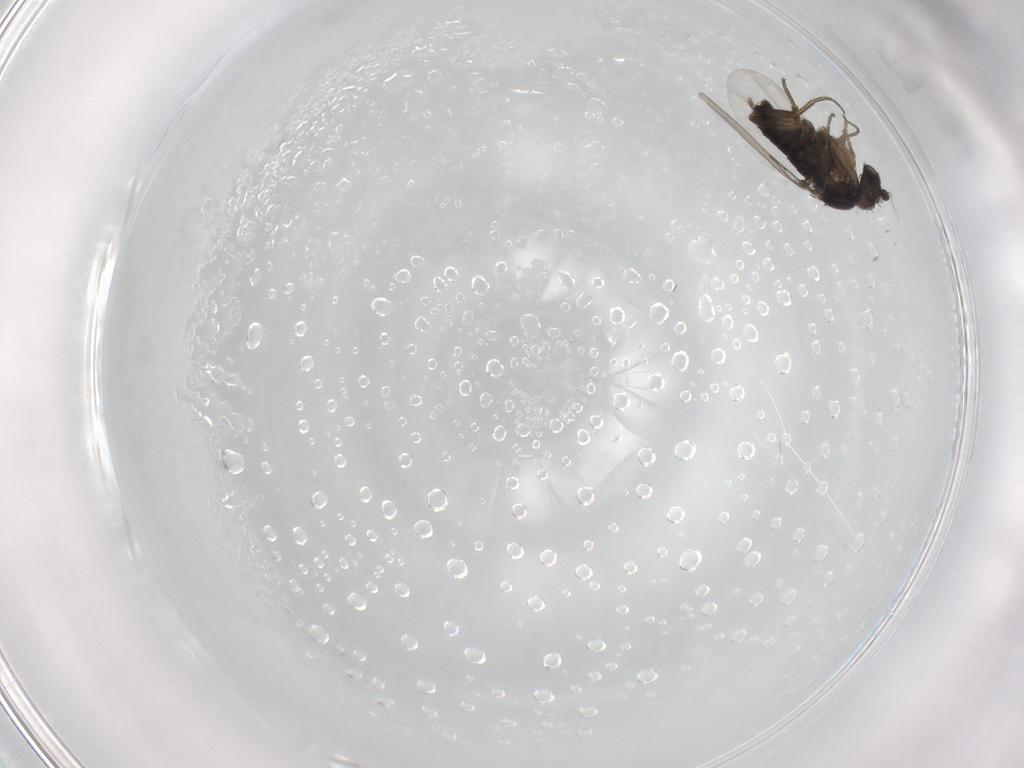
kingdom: Animalia
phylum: Arthropoda
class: Insecta
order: Diptera
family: Phoridae
